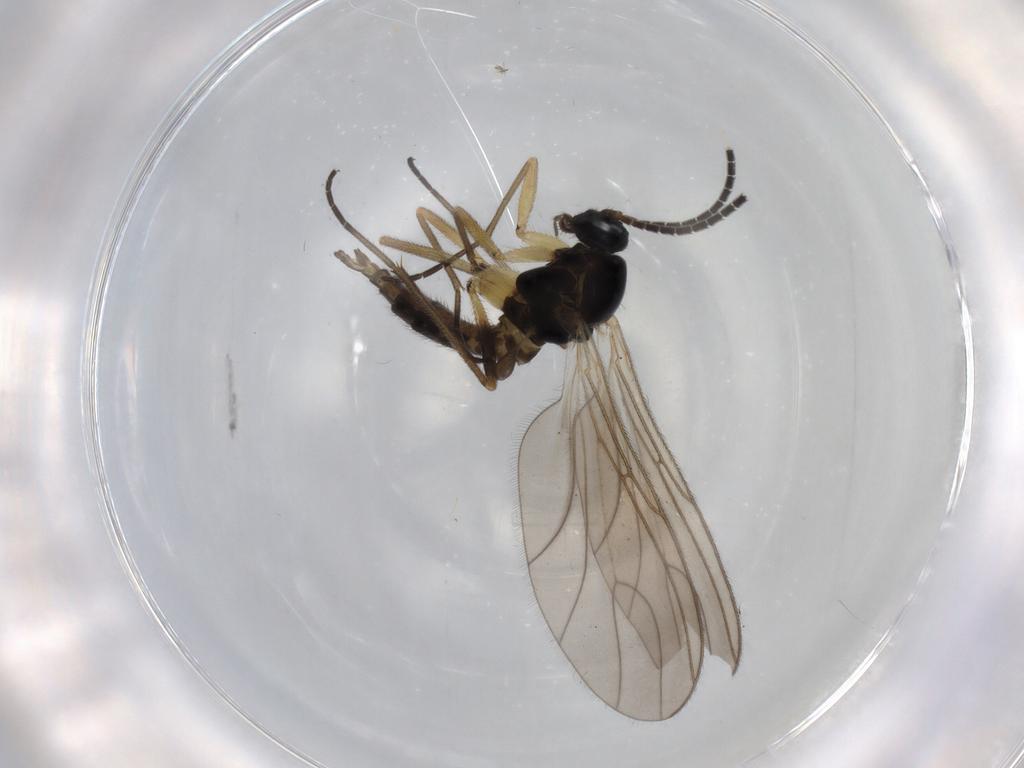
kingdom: Animalia
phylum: Arthropoda
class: Insecta
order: Diptera
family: Sciaridae
